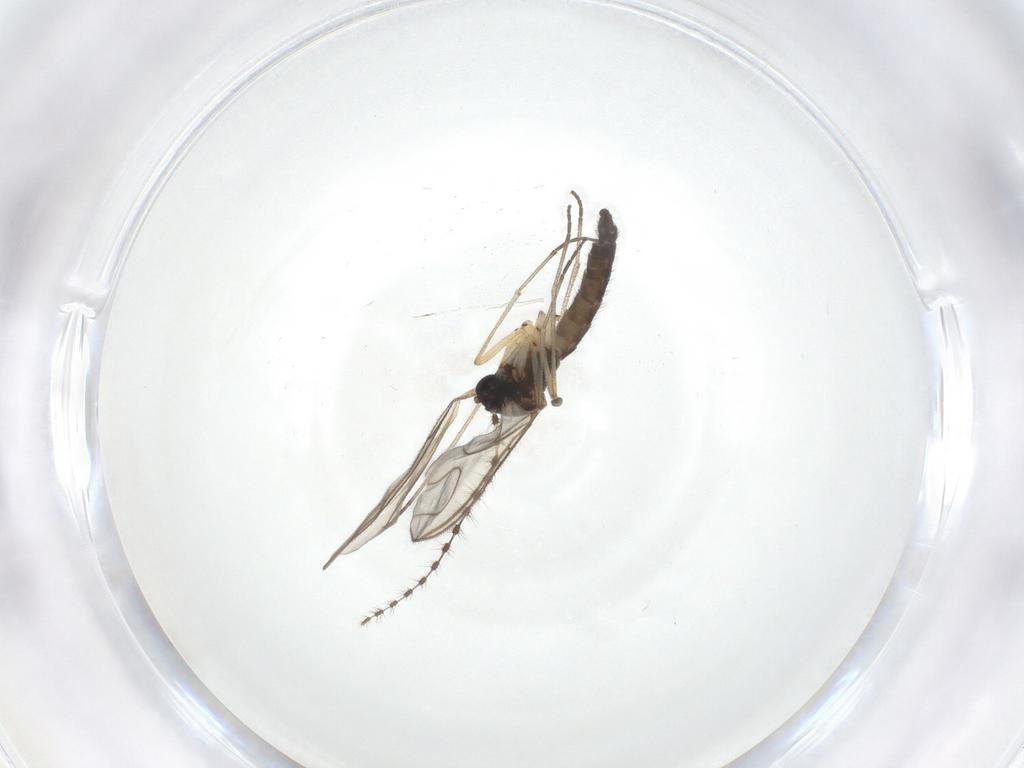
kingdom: Animalia
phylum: Arthropoda
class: Insecta
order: Diptera
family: Sciaridae
